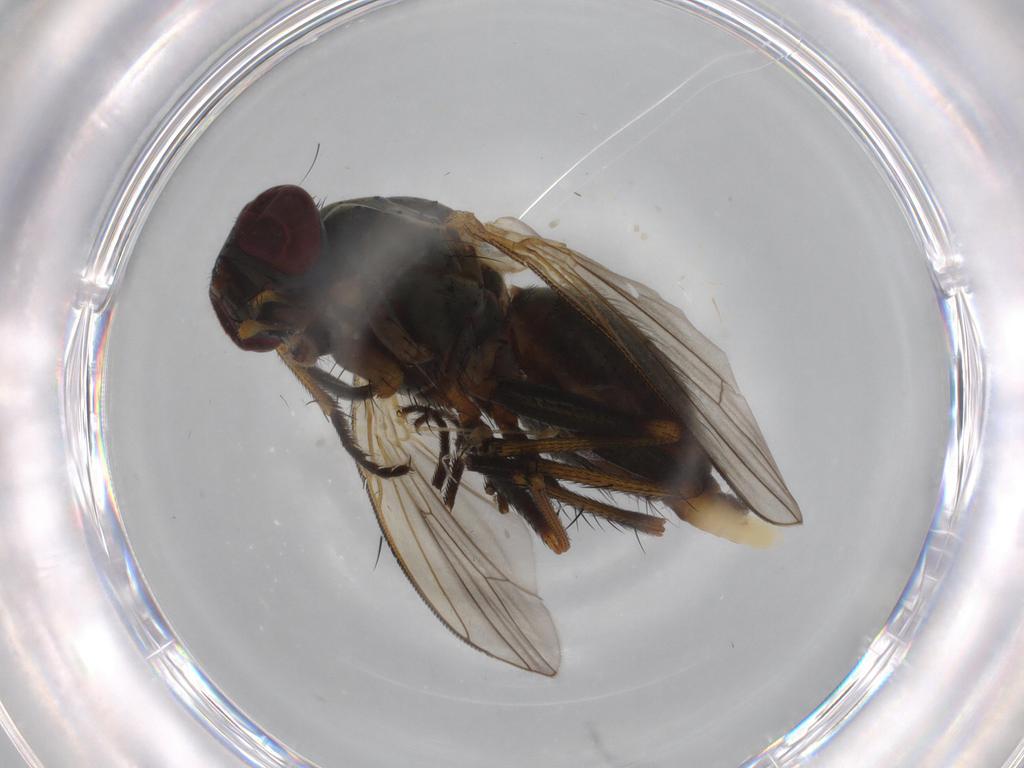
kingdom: Animalia
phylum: Arthropoda
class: Insecta
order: Diptera
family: Muscidae
